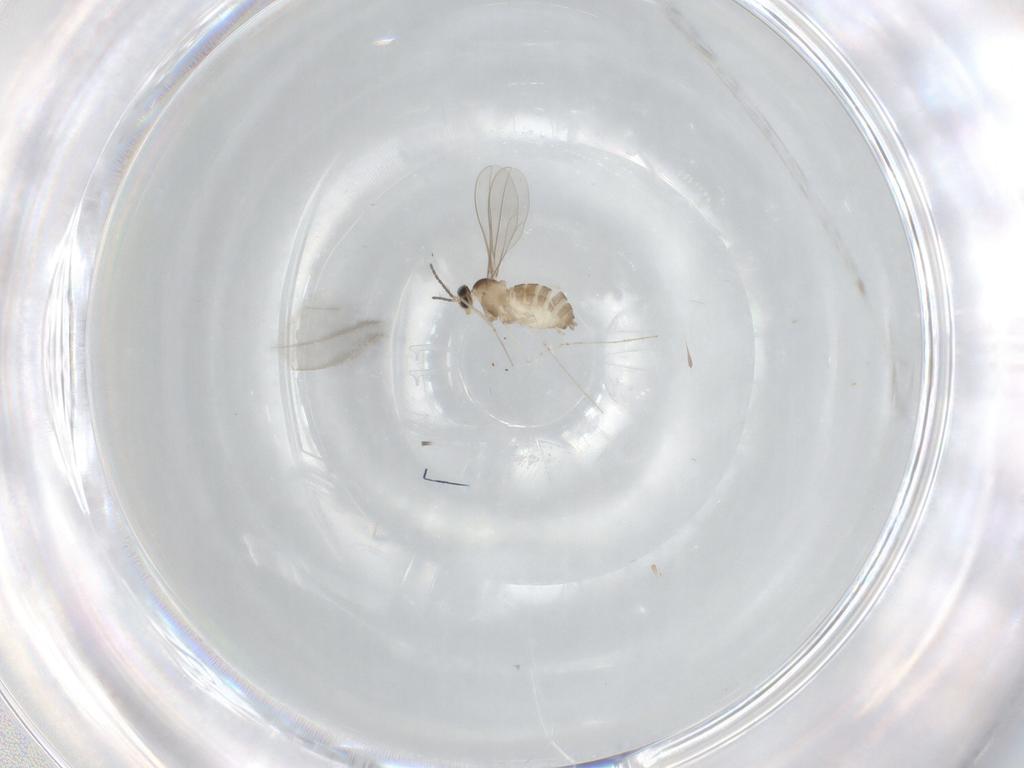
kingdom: Animalia
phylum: Arthropoda
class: Insecta
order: Diptera
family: Cecidomyiidae
